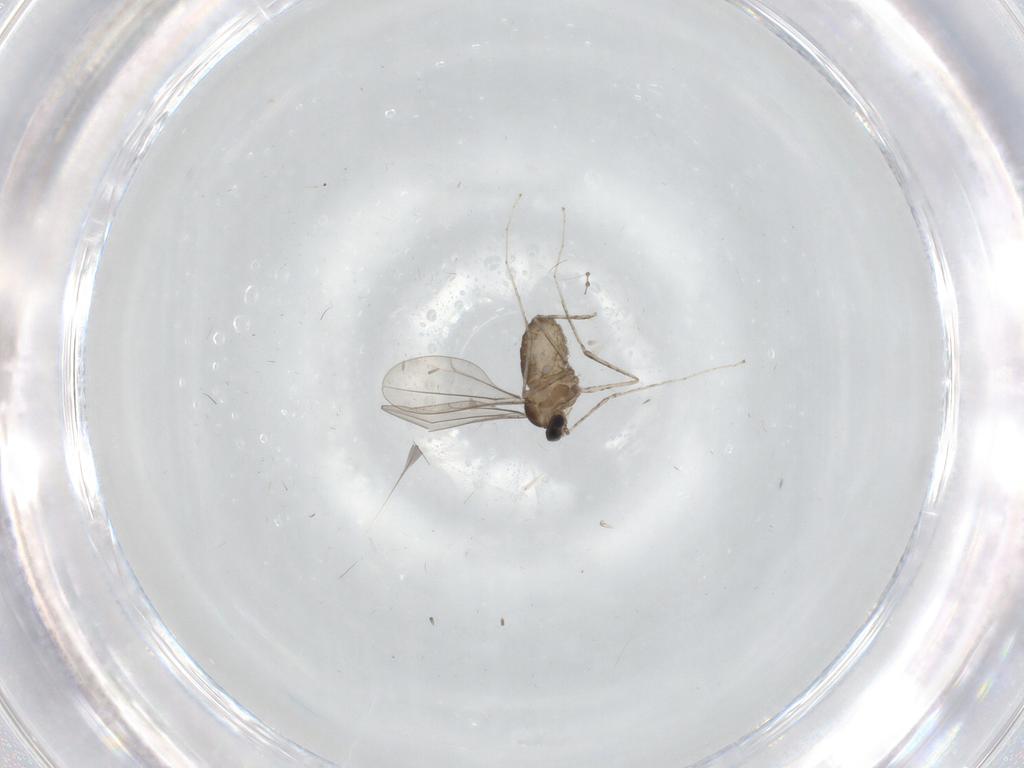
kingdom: Animalia
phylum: Arthropoda
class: Insecta
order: Diptera
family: Cecidomyiidae
